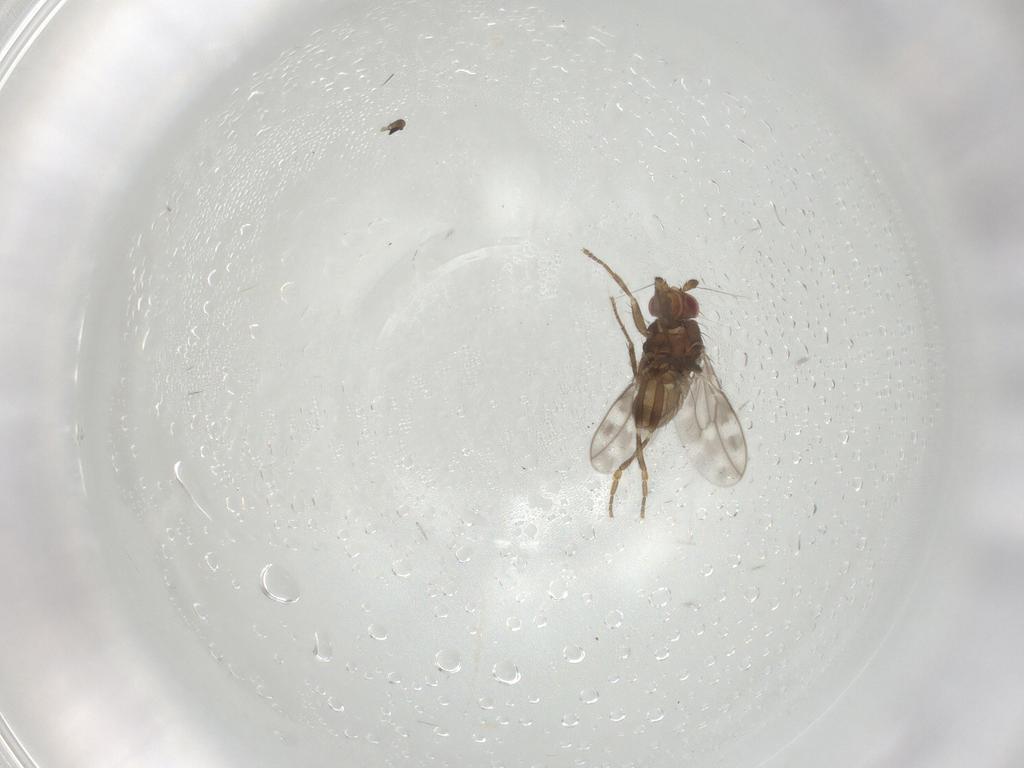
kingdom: Animalia
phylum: Arthropoda
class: Insecta
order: Diptera
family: Sphaeroceridae
